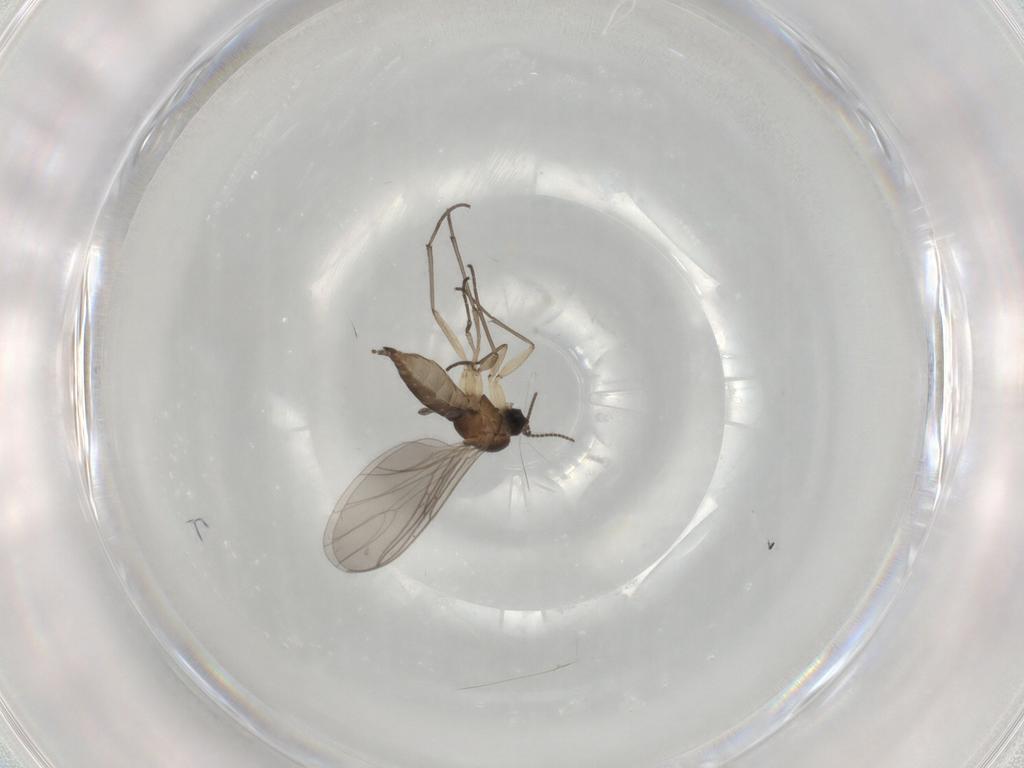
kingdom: Animalia
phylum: Arthropoda
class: Insecta
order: Diptera
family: Sciaridae
